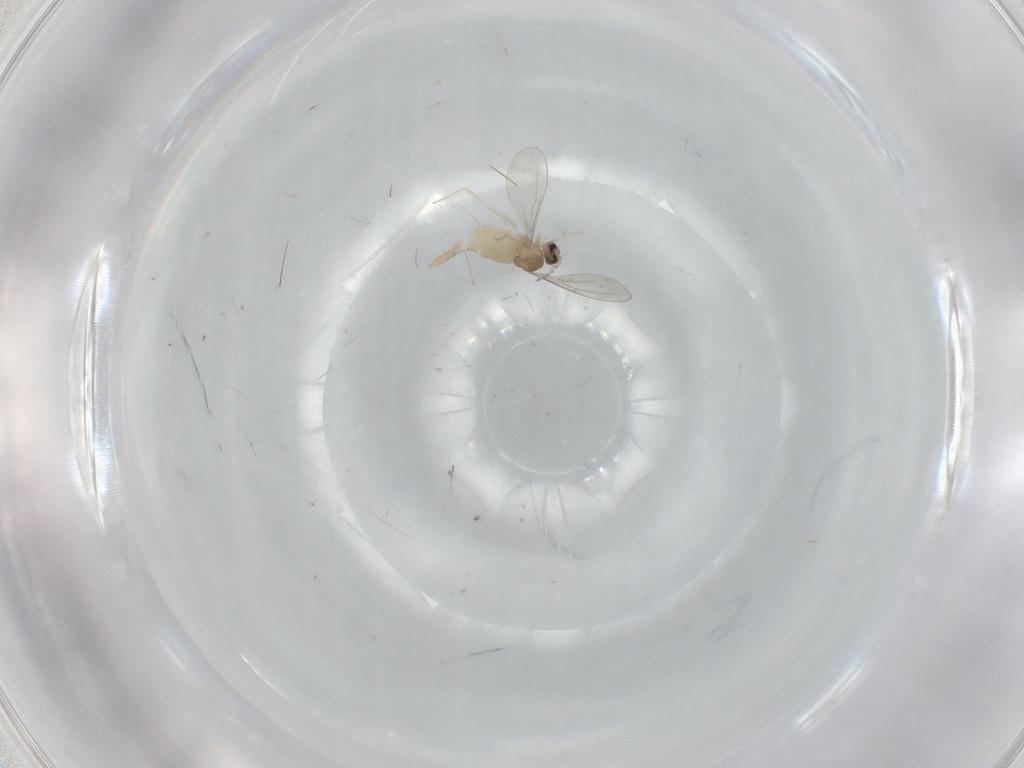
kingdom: Animalia
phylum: Arthropoda
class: Insecta
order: Diptera
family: Cecidomyiidae
